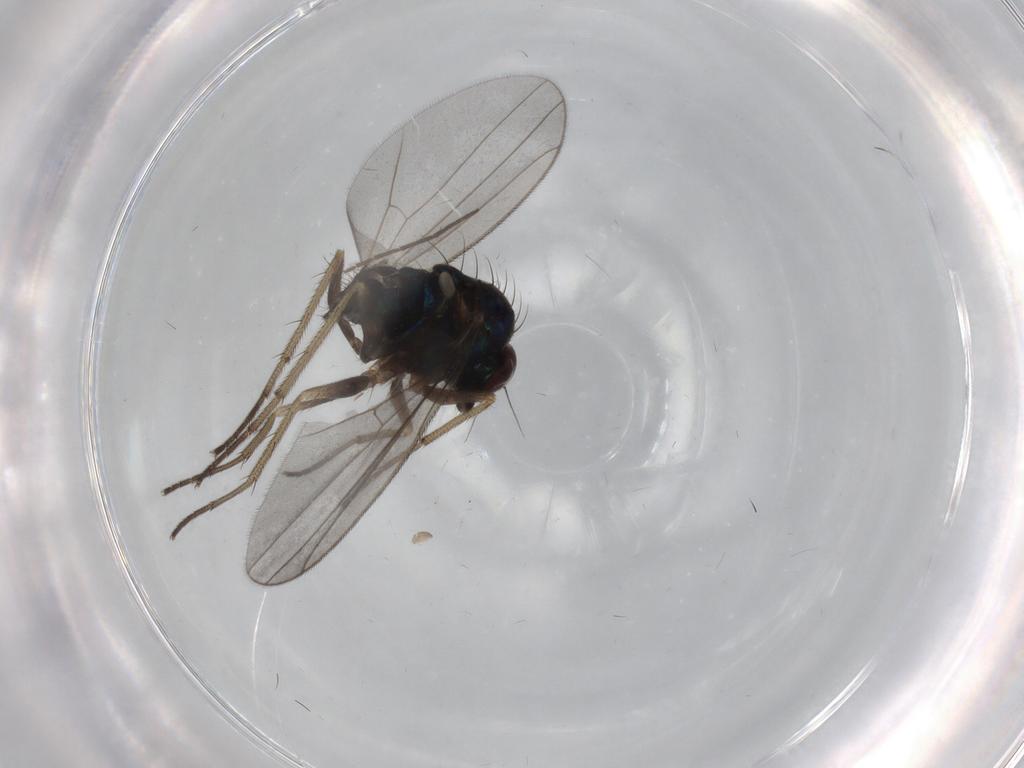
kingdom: Animalia
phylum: Arthropoda
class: Insecta
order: Diptera
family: Dolichopodidae
